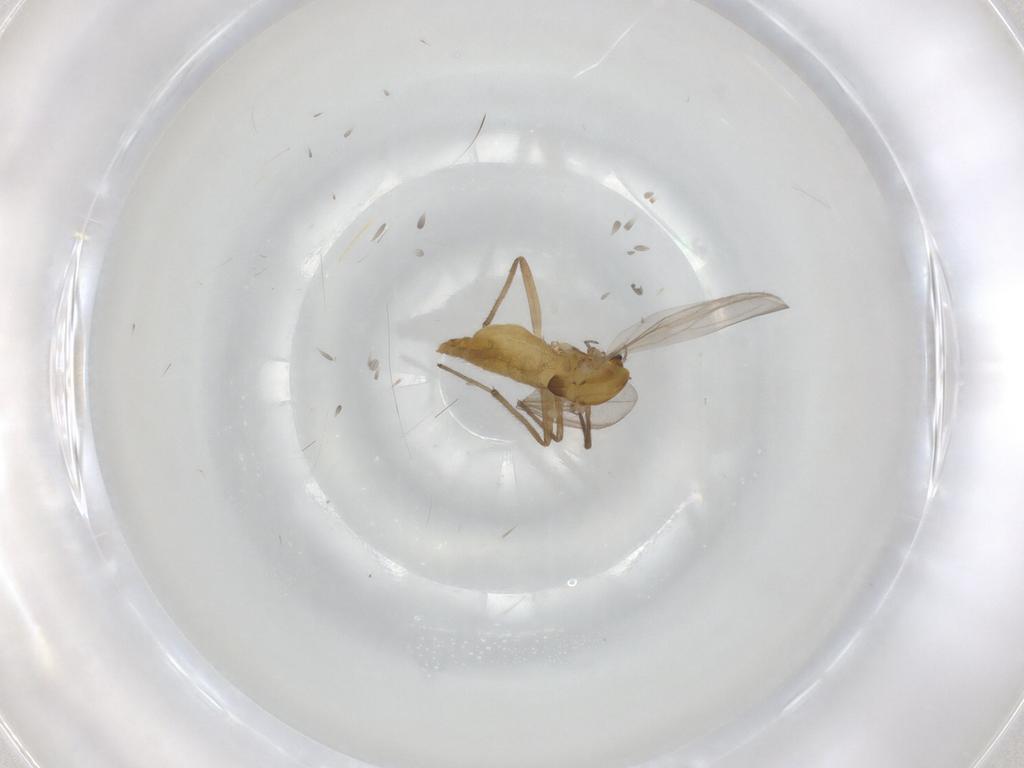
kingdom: Animalia
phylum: Arthropoda
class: Insecta
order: Diptera
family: Chironomidae
